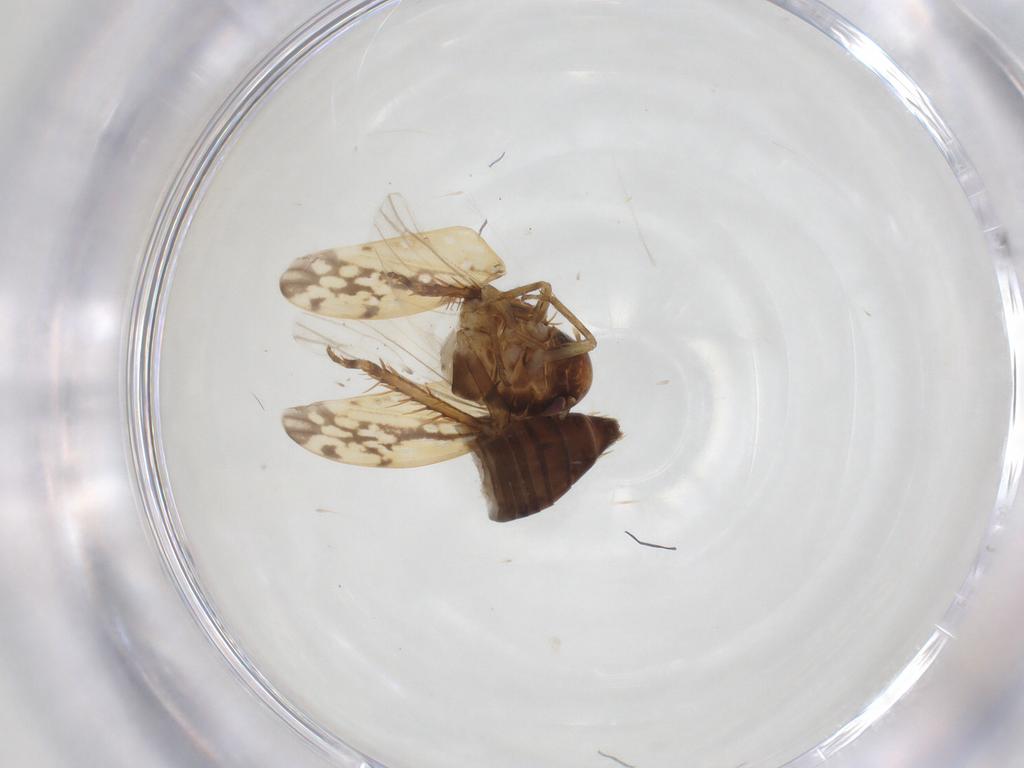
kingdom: Animalia
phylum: Arthropoda
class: Insecta
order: Hemiptera
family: Cicadellidae
